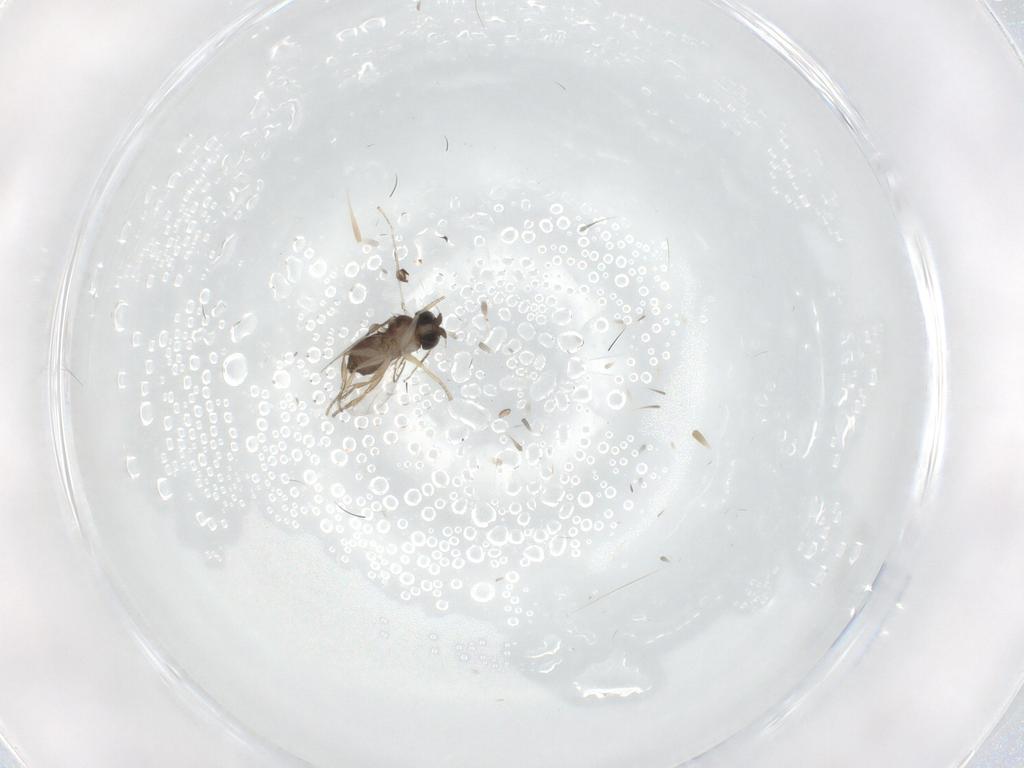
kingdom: Animalia
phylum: Arthropoda
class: Insecta
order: Diptera
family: Phoridae
